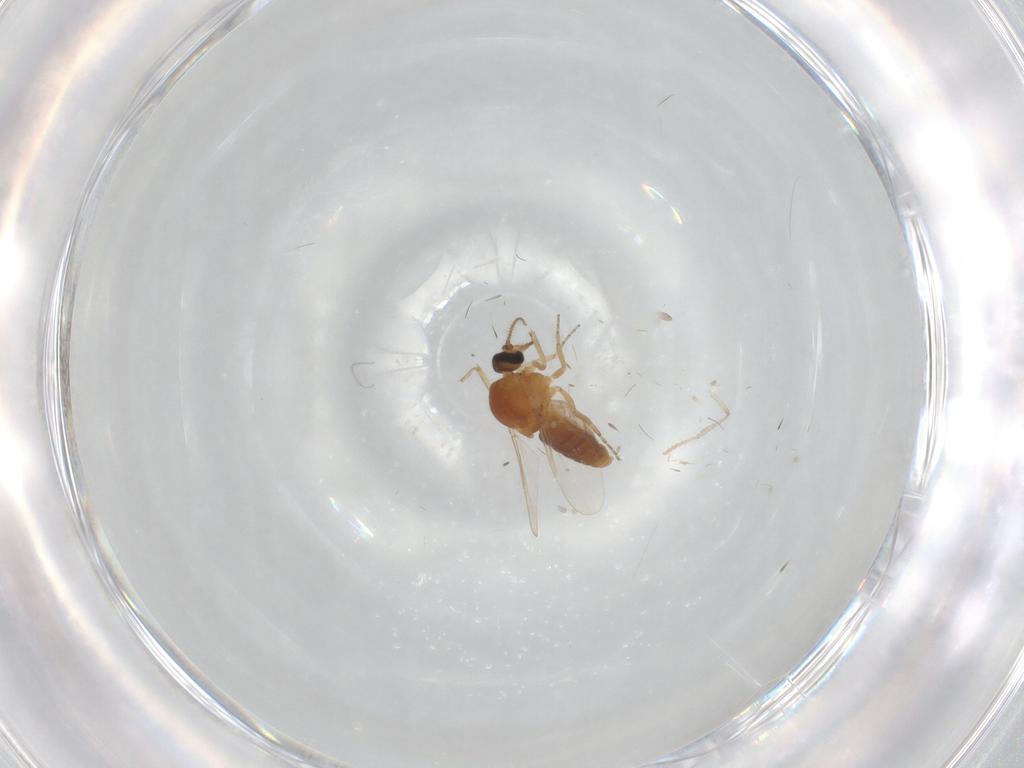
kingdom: Animalia
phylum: Arthropoda
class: Insecta
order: Diptera
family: Ceratopogonidae
